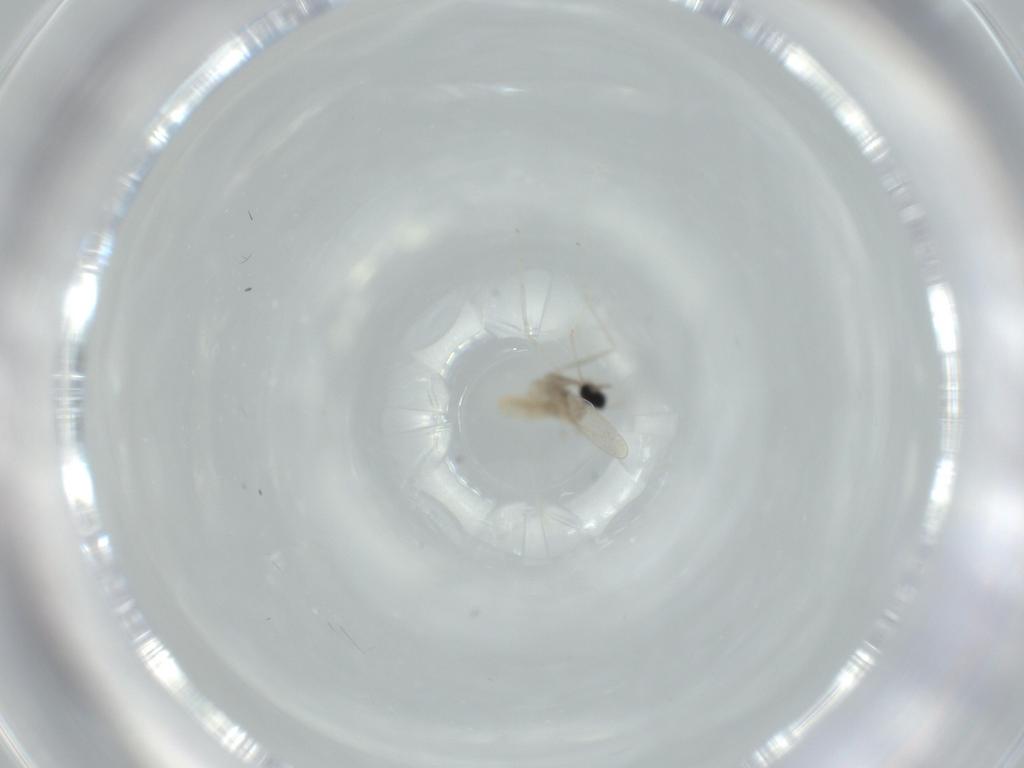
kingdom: Animalia
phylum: Arthropoda
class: Insecta
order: Diptera
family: Cecidomyiidae
